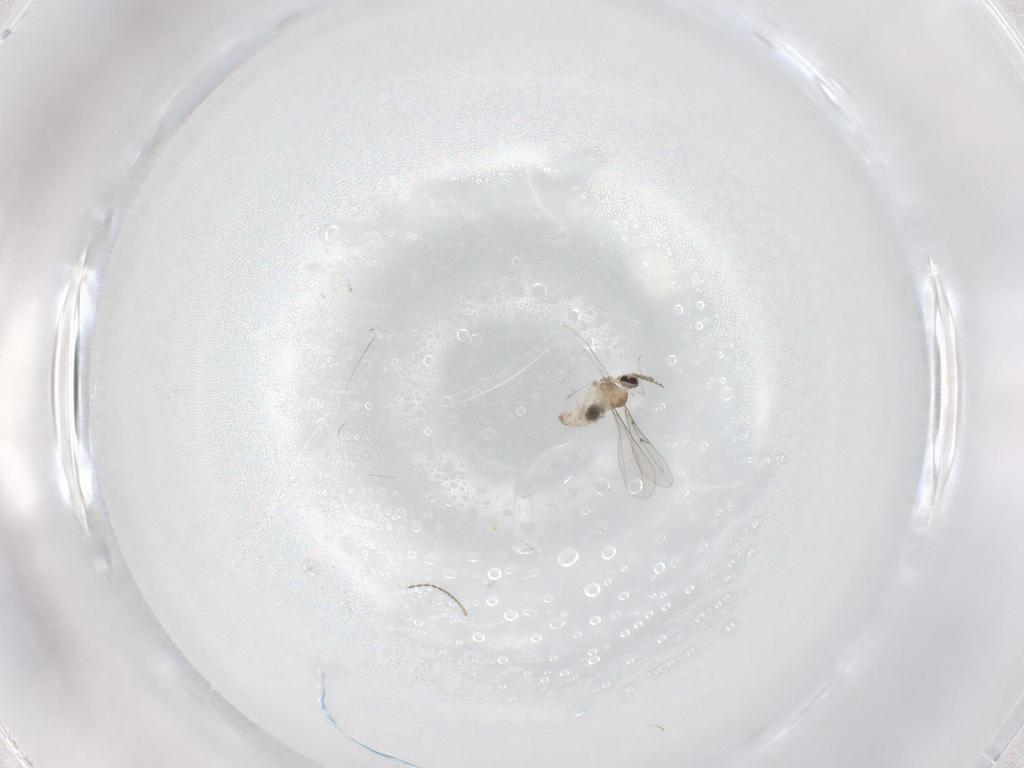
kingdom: Animalia
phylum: Arthropoda
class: Insecta
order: Diptera
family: Cecidomyiidae
